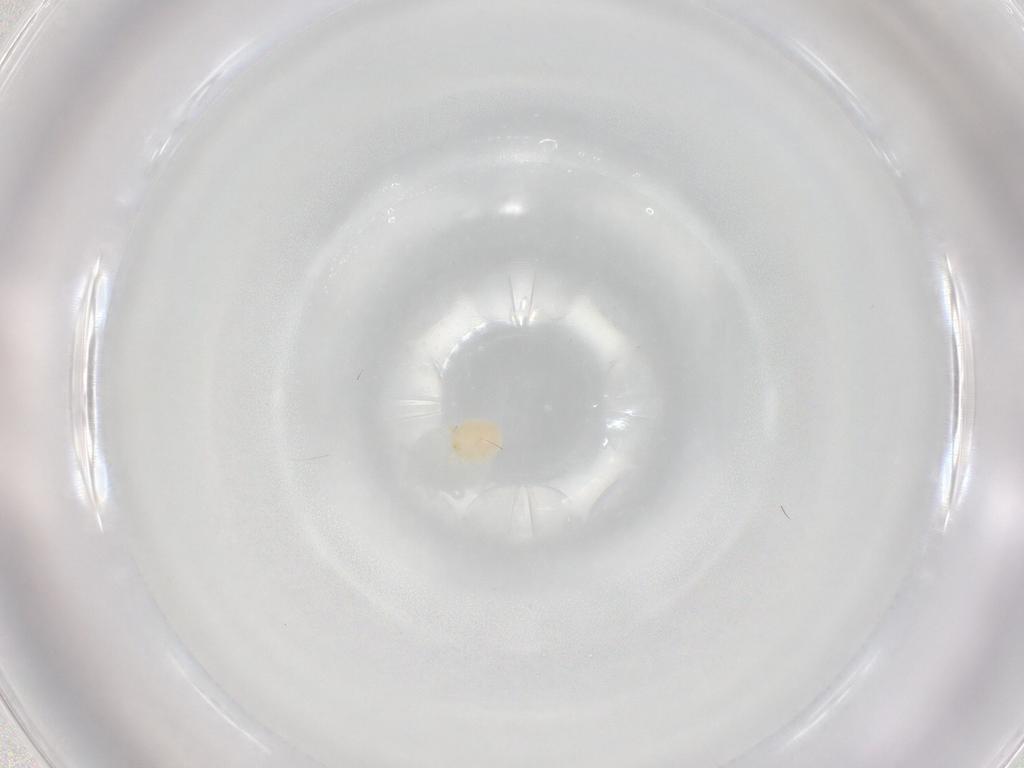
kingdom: Animalia
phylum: Arthropoda
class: Arachnida
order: Trombidiformes
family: Hydryphantidae
